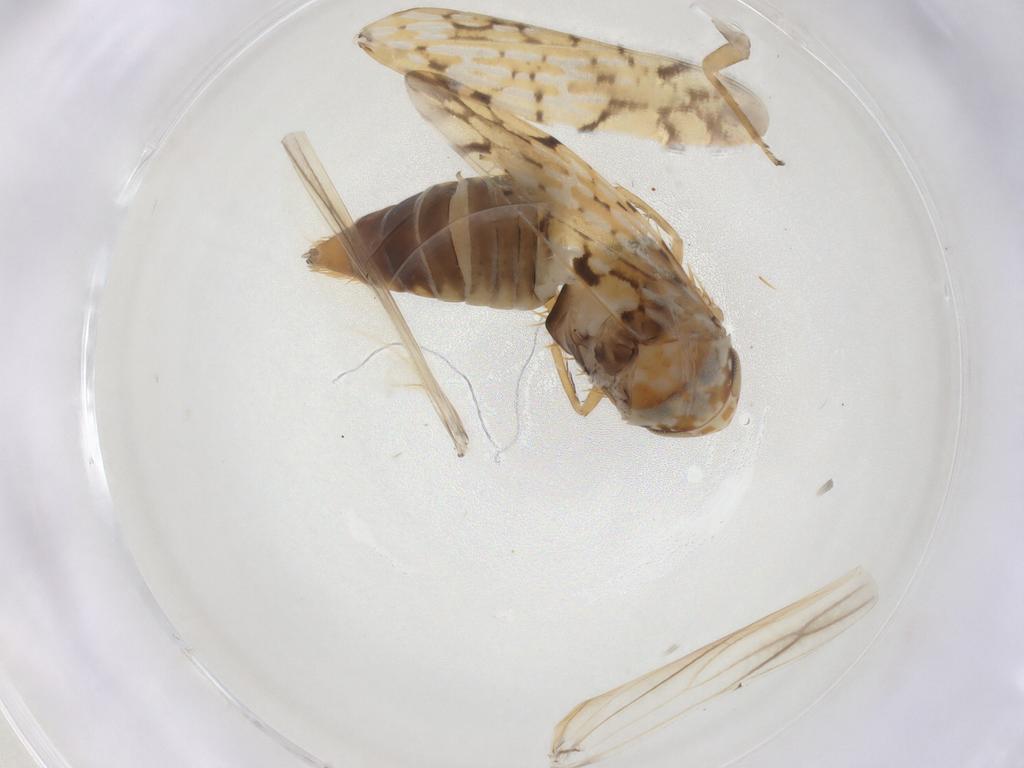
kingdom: Animalia
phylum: Arthropoda
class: Insecta
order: Hemiptera
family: Cicadellidae
